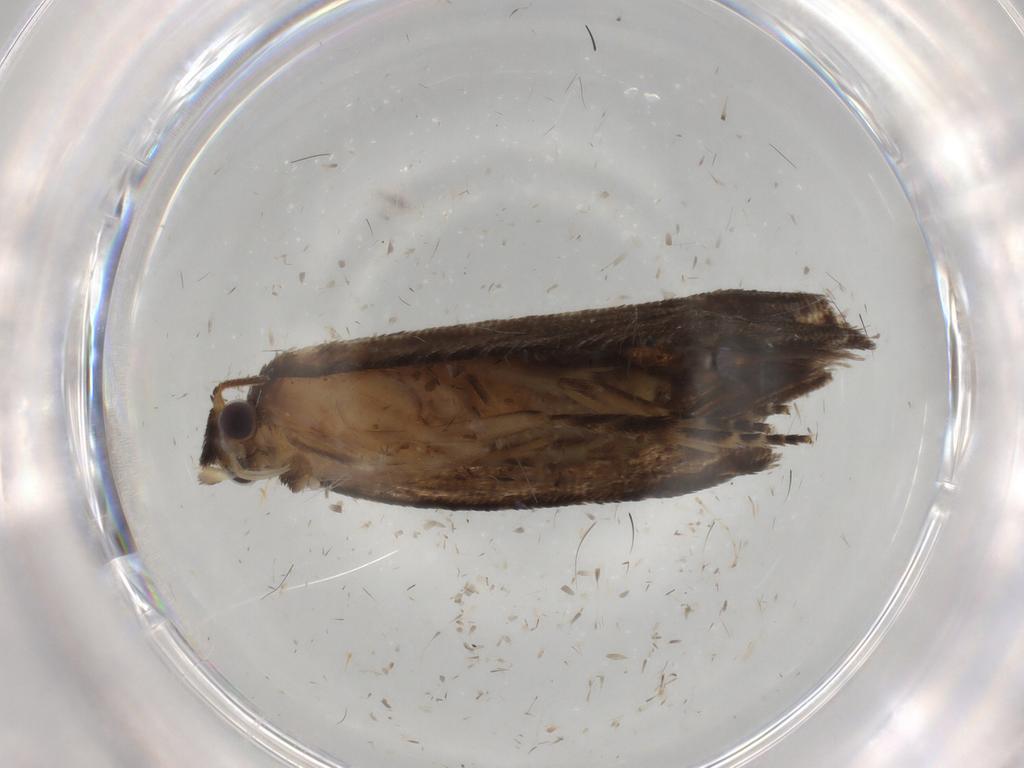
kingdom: Animalia
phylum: Arthropoda
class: Insecta
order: Lepidoptera
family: Tortricidae
